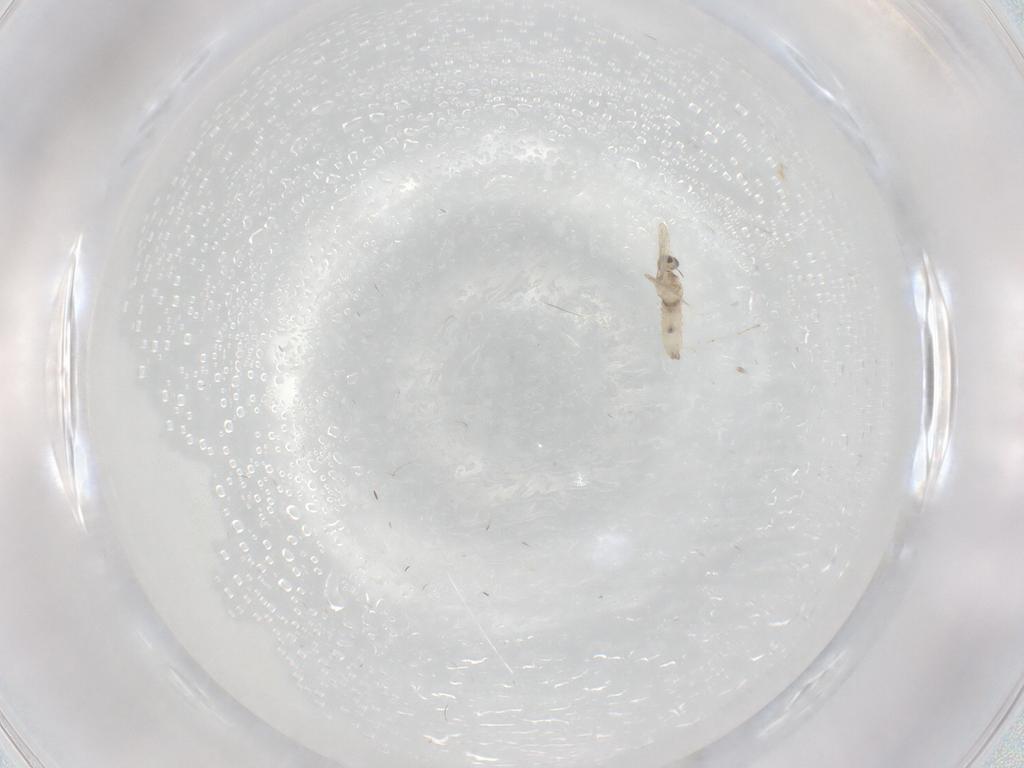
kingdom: Animalia
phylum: Arthropoda
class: Insecta
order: Diptera
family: Cecidomyiidae
